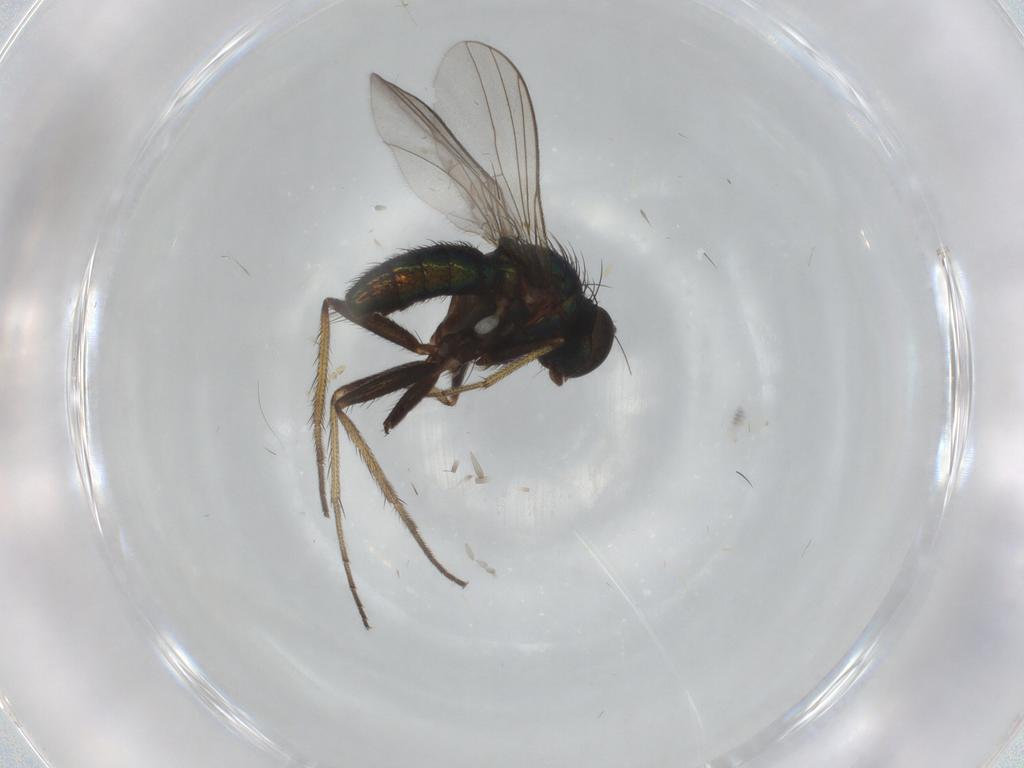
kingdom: Animalia
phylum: Arthropoda
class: Insecta
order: Diptera
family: Dolichopodidae
